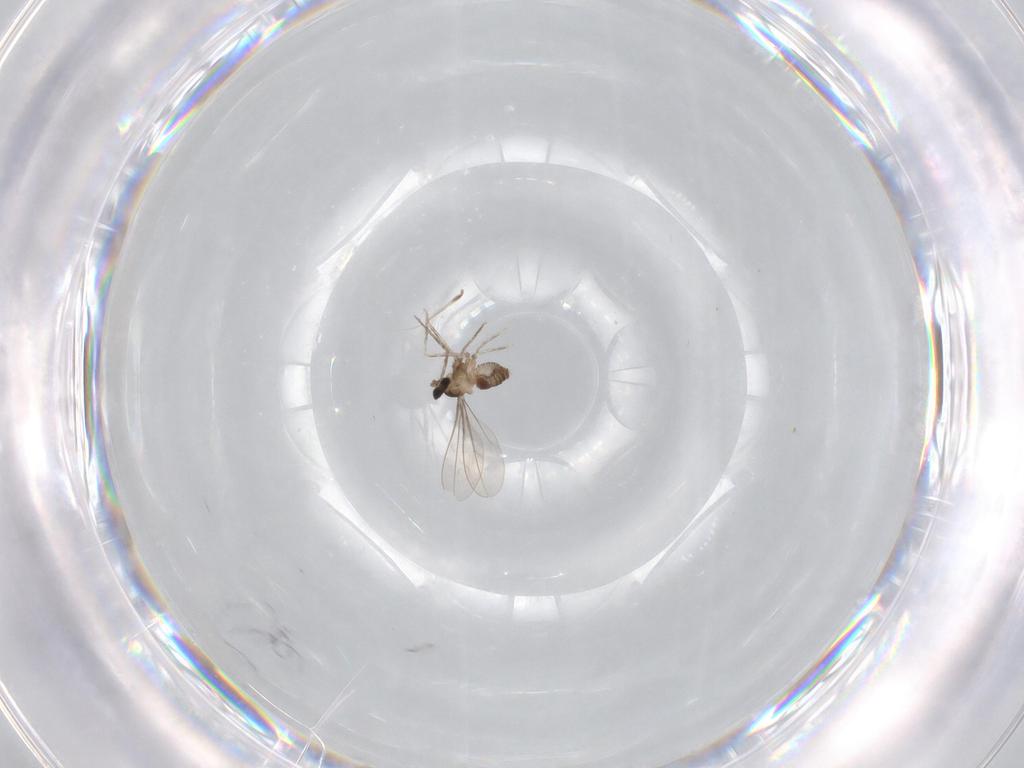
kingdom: Animalia
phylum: Arthropoda
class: Insecta
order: Diptera
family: Cecidomyiidae
